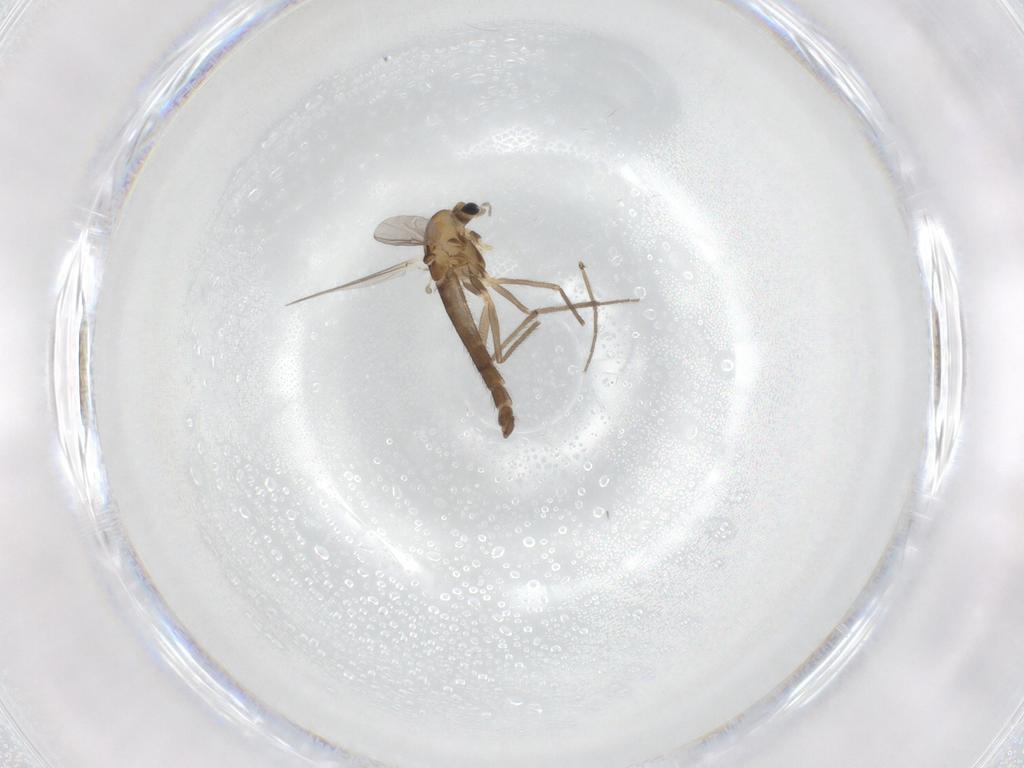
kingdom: Animalia
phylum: Arthropoda
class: Insecta
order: Diptera
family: Chironomidae
